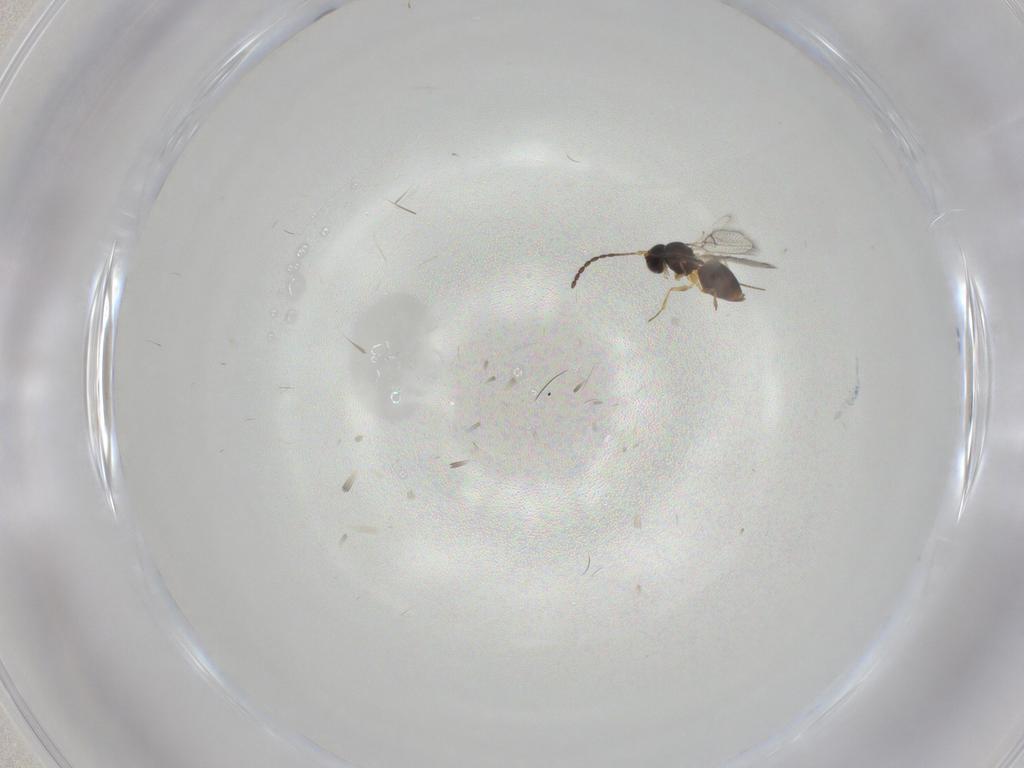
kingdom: Animalia
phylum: Arthropoda
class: Insecta
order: Hymenoptera
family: Figitidae
